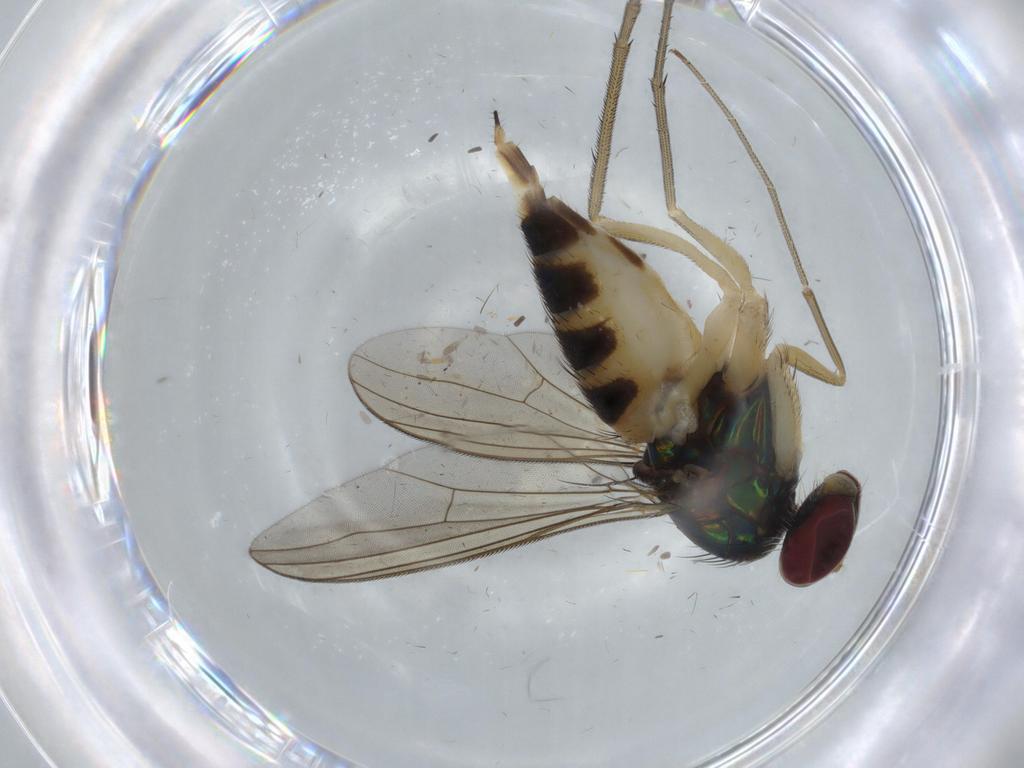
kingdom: Animalia
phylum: Arthropoda
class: Insecta
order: Diptera
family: Dolichopodidae
